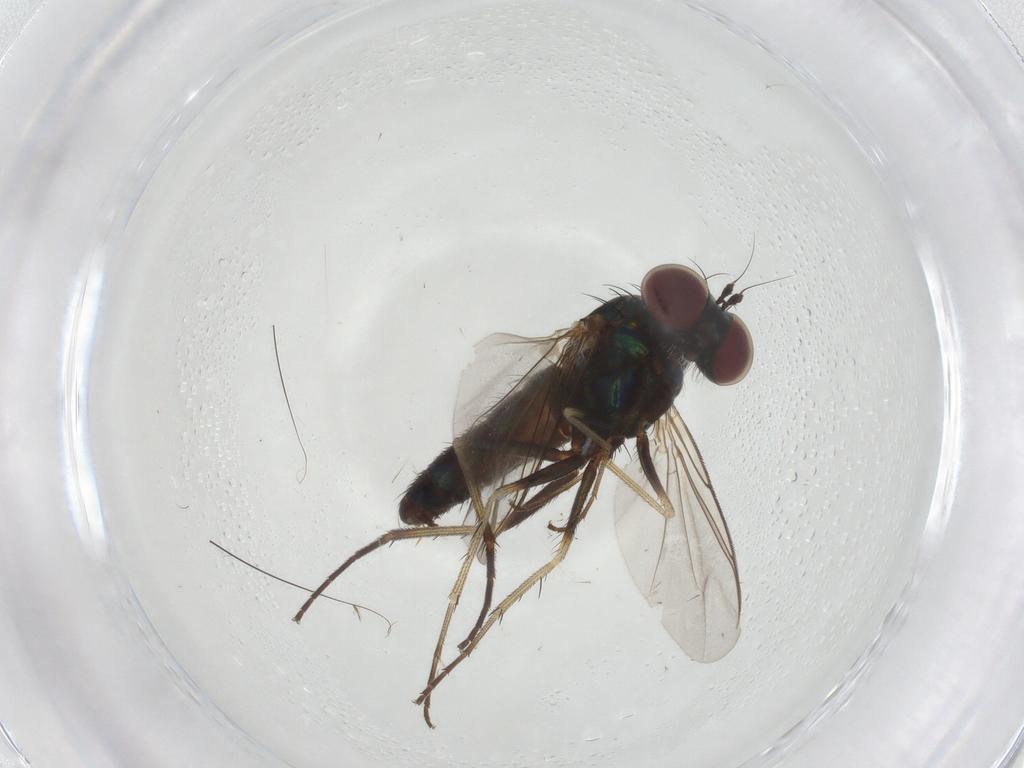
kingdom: Animalia
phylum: Arthropoda
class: Insecta
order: Diptera
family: Dolichopodidae
